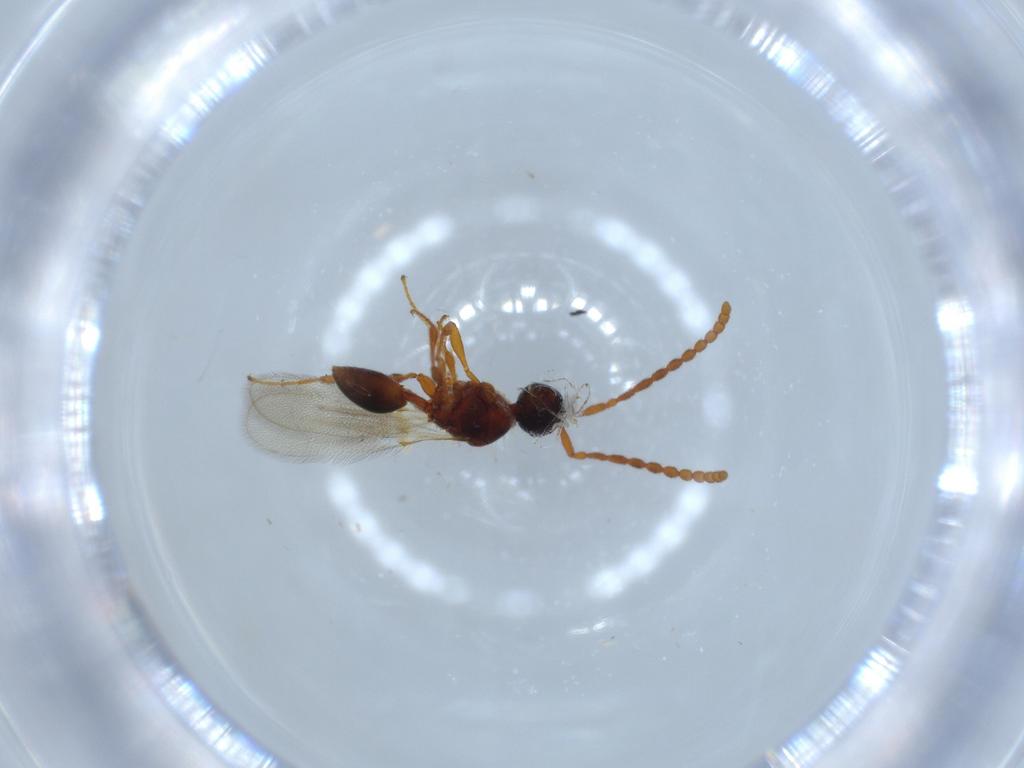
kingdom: Animalia
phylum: Arthropoda
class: Insecta
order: Hymenoptera
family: Diapriidae
